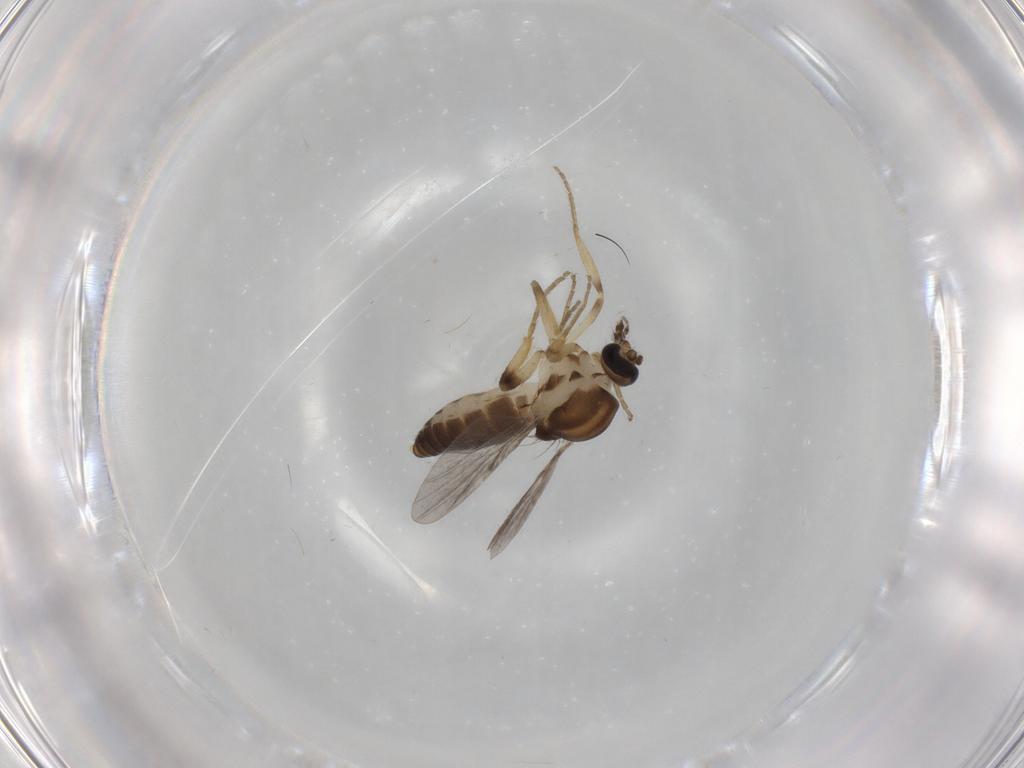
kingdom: Animalia
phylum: Arthropoda
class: Insecta
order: Diptera
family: Ceratopogonidae
